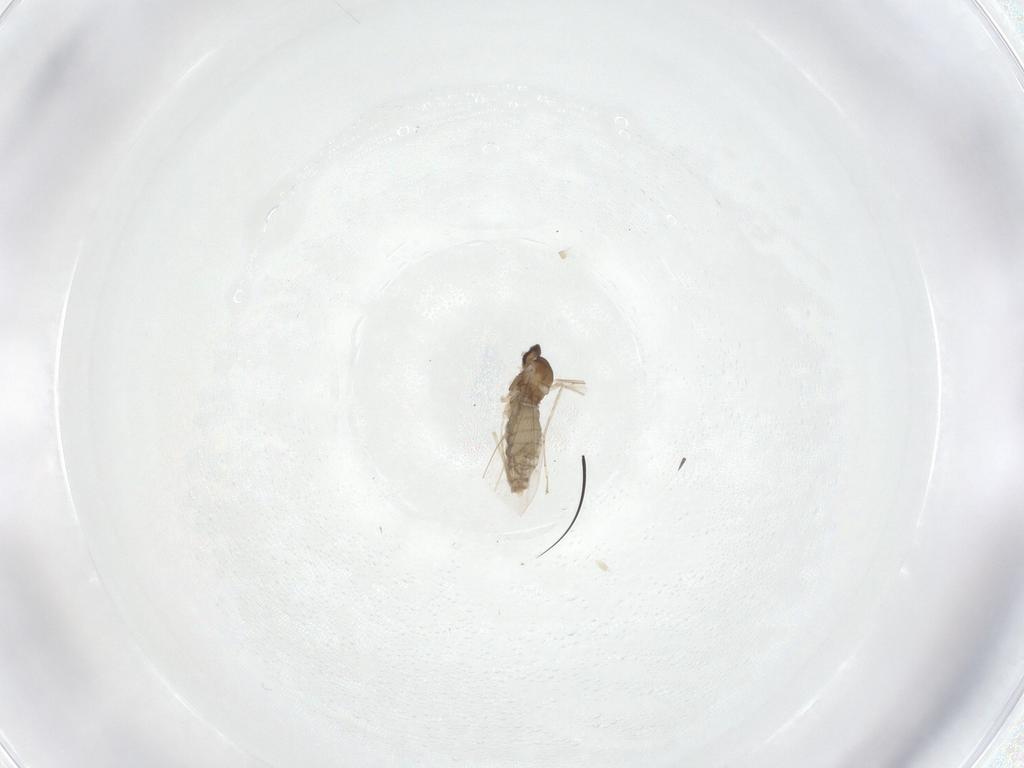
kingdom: Animalia
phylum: Arthropoda
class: Insecta
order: Diptera
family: Cecidomyiidae
